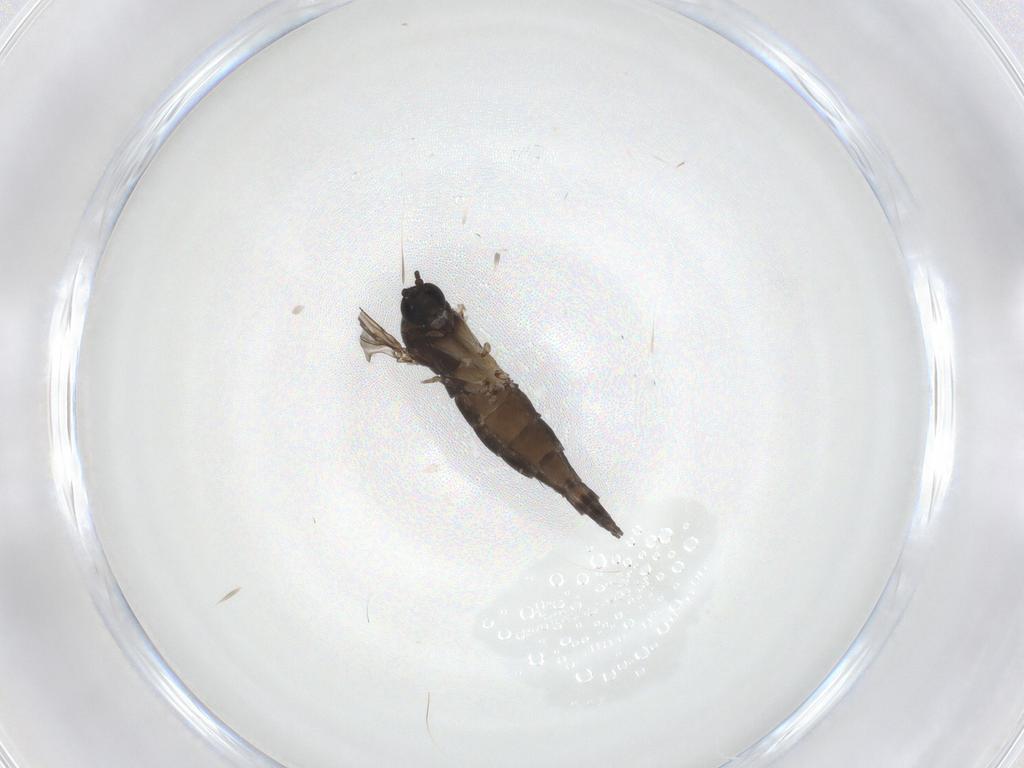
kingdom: Animalia
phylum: Arthropoda
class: Insecta
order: Diptera
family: Sciaridae
